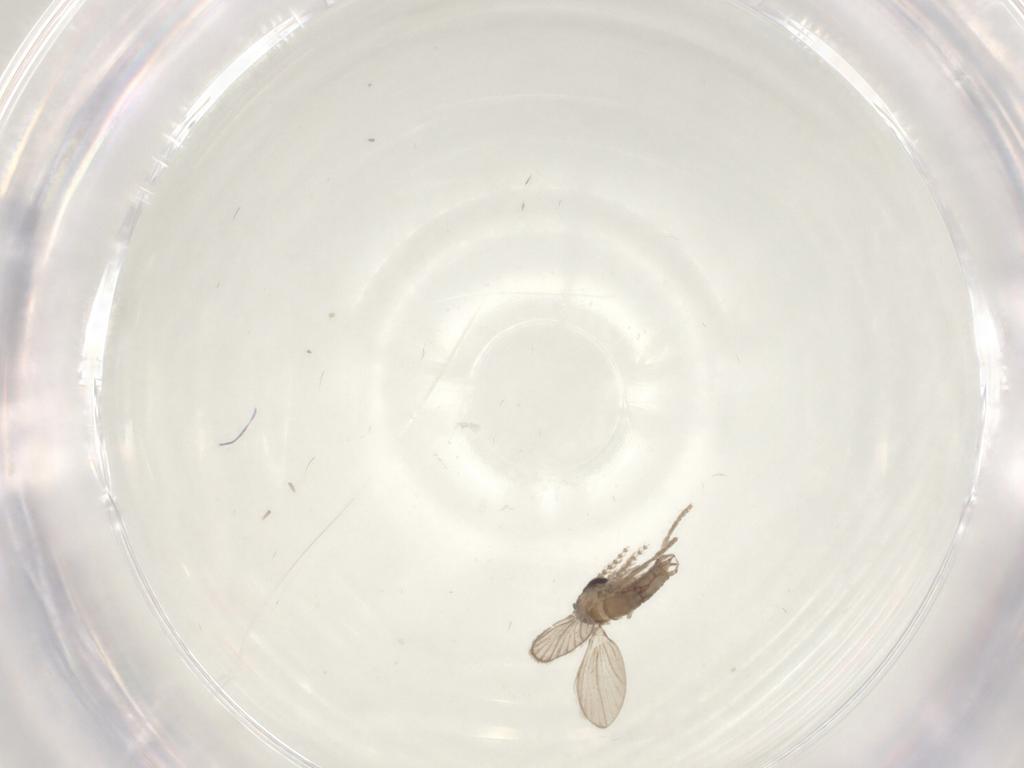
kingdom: Animalia
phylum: Arthropoda
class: Insecta
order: Diptera
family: Psychodidae
